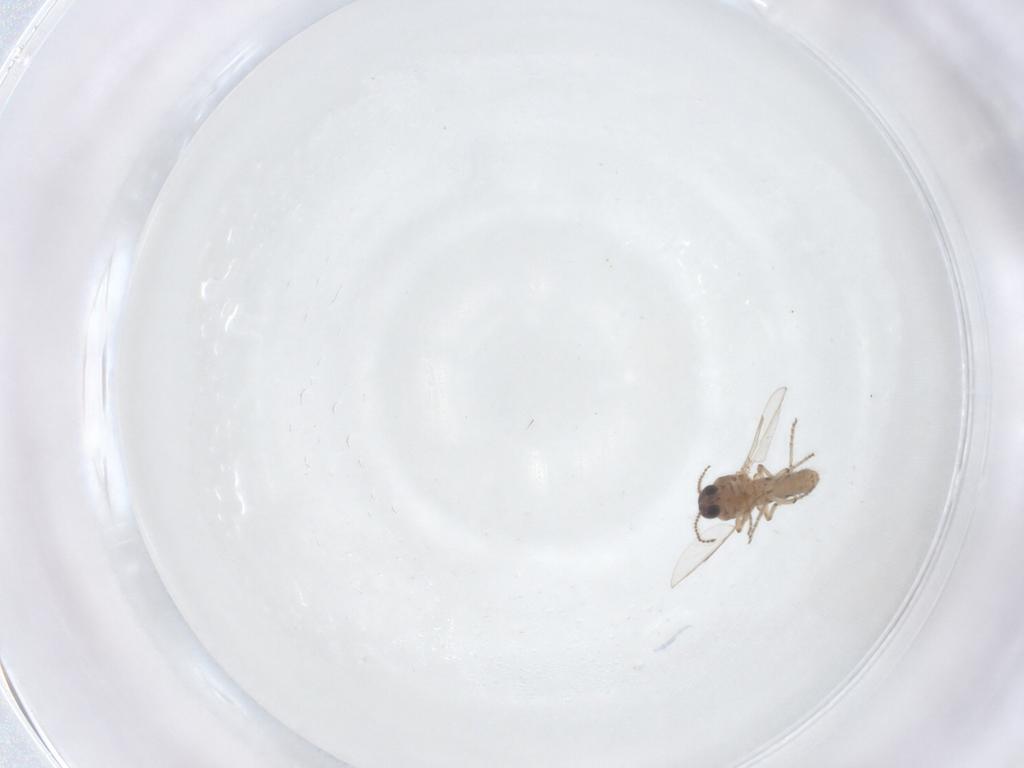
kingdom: Animalia
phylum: Arthropoda
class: Insecta
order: Diptera
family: Ceratopogonidae
